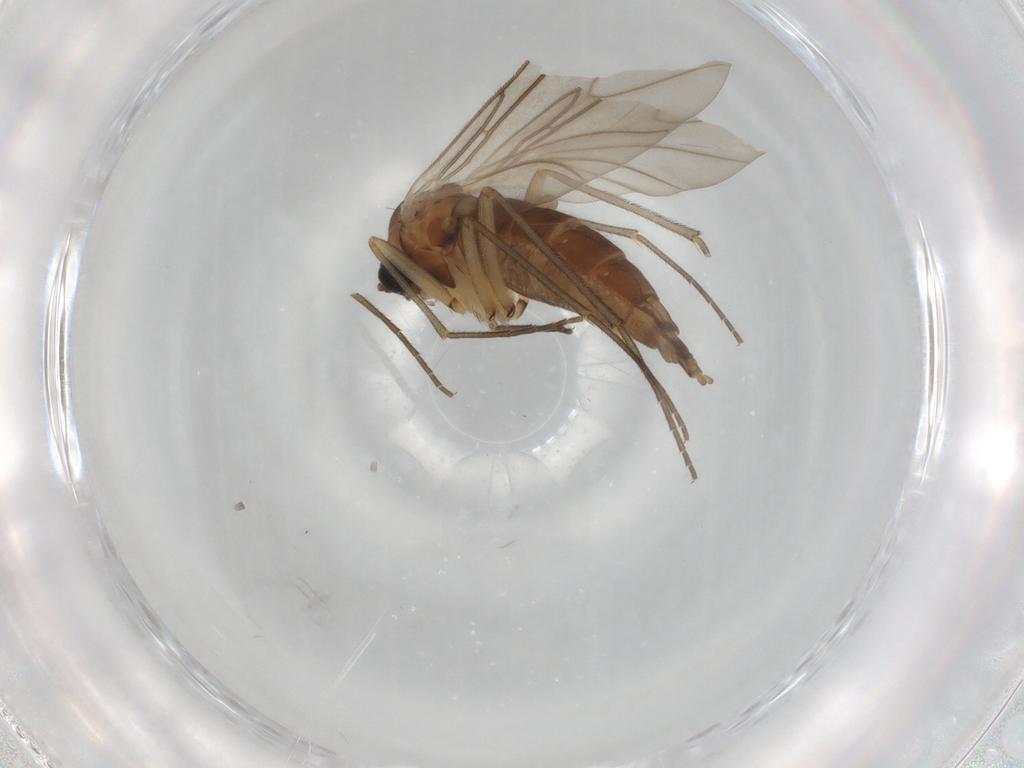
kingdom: Animalia
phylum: Arthropoda
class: Insecta
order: Diptera
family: Sciaridae
